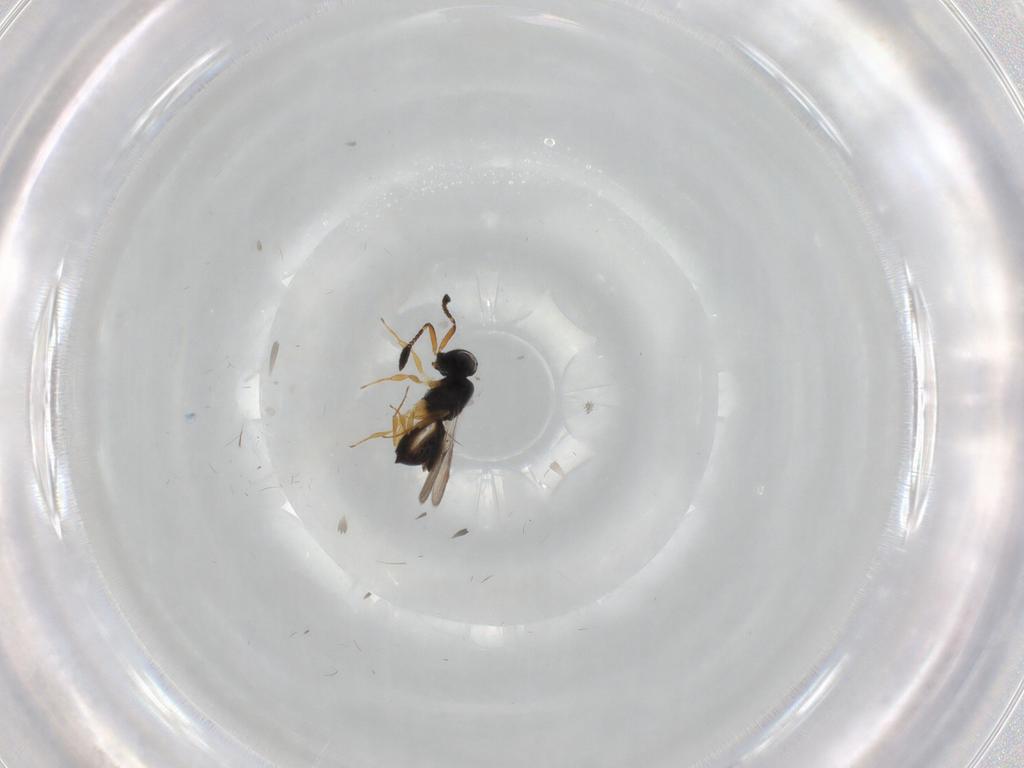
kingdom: Animalia
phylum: Arthropoda
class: Insecta
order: Hymenoptera
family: Scelionidae
